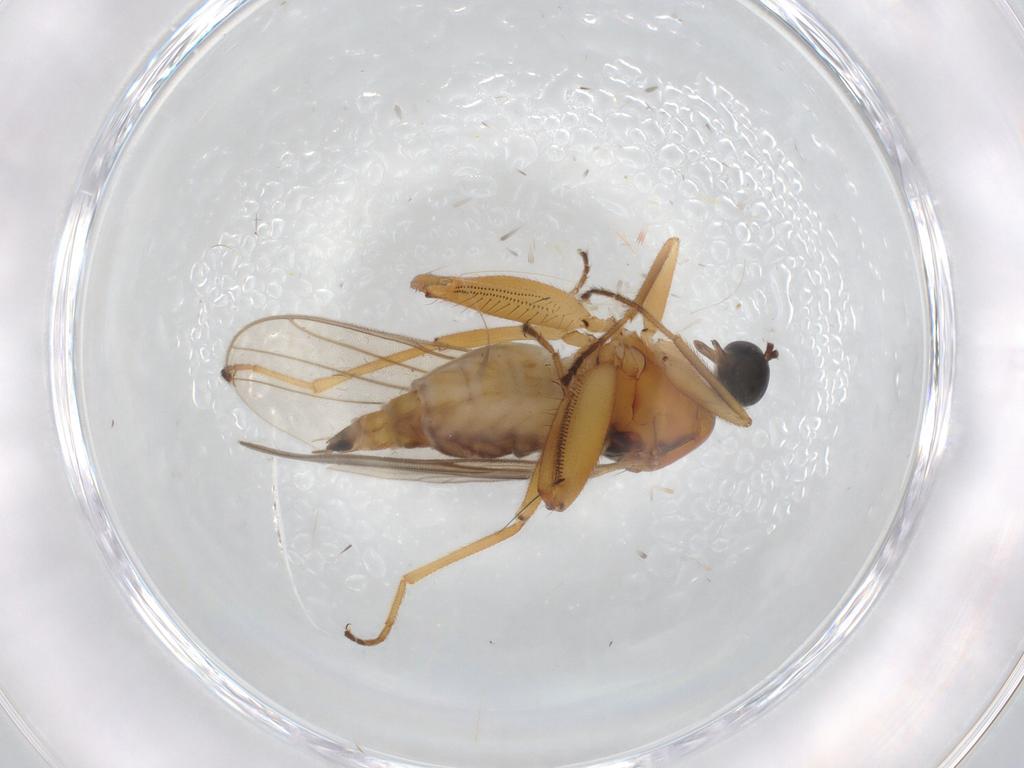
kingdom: Animalia
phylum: Arthropoda
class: Insecta
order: Diptera
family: Hybotidae
